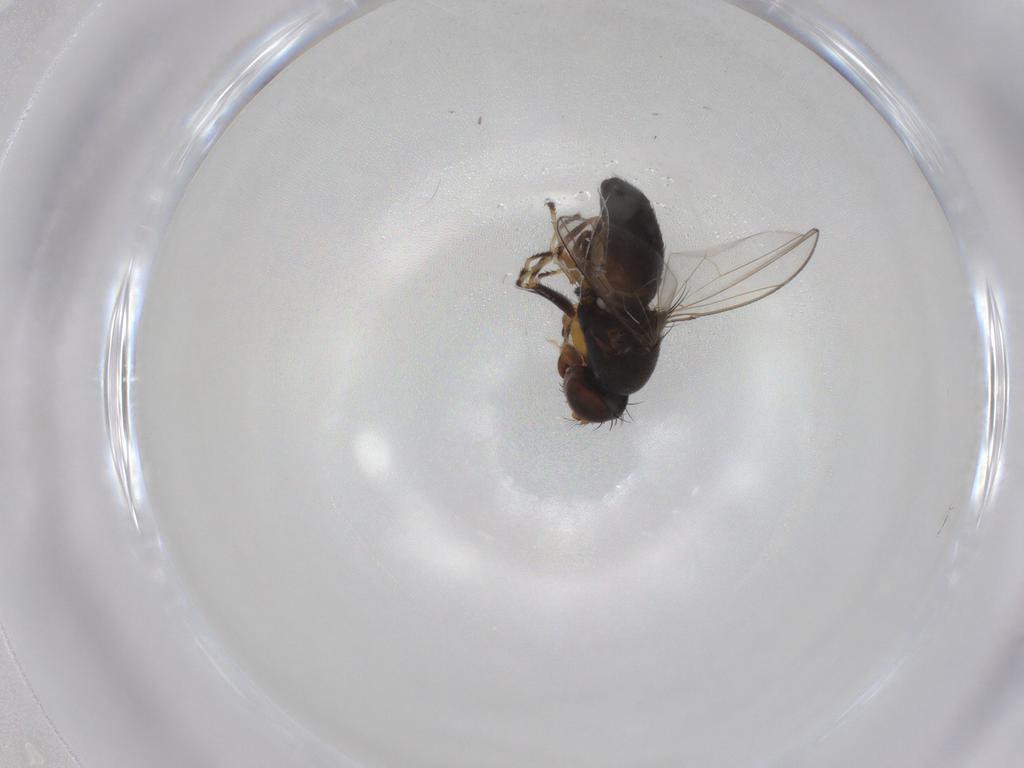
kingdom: Animalia
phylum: Arthropoda
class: Insecta
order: Diptera
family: Ephydridae
